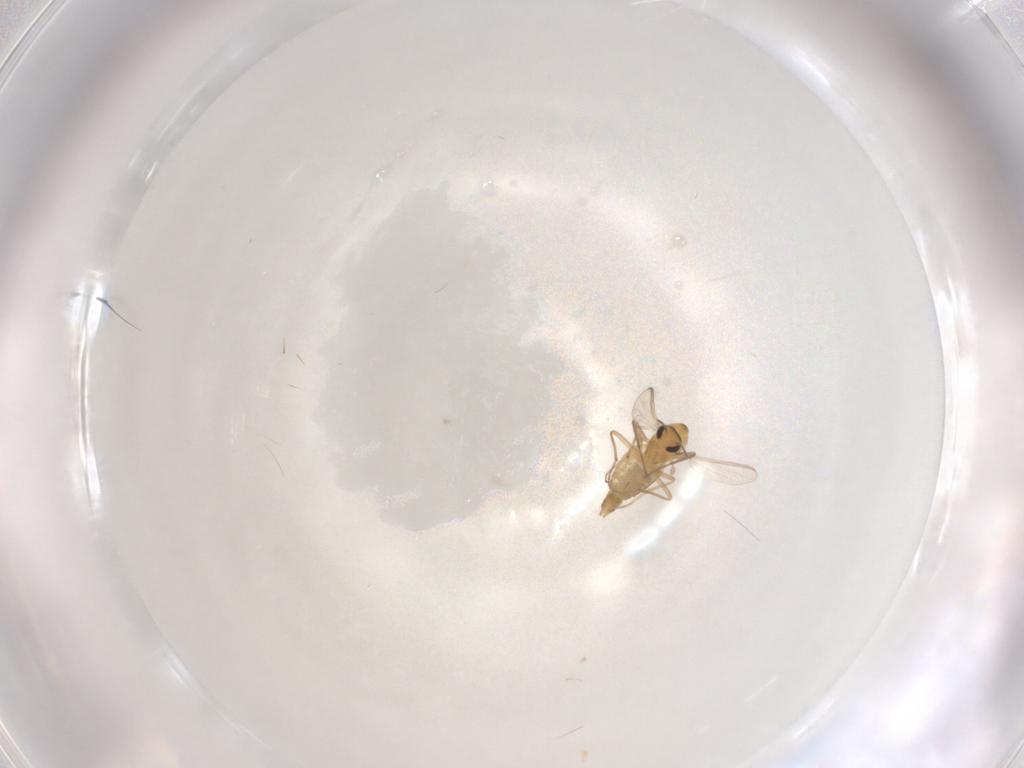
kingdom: Animalia
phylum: Arthropoda
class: Insecta
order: Diptera
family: Chironomidae
